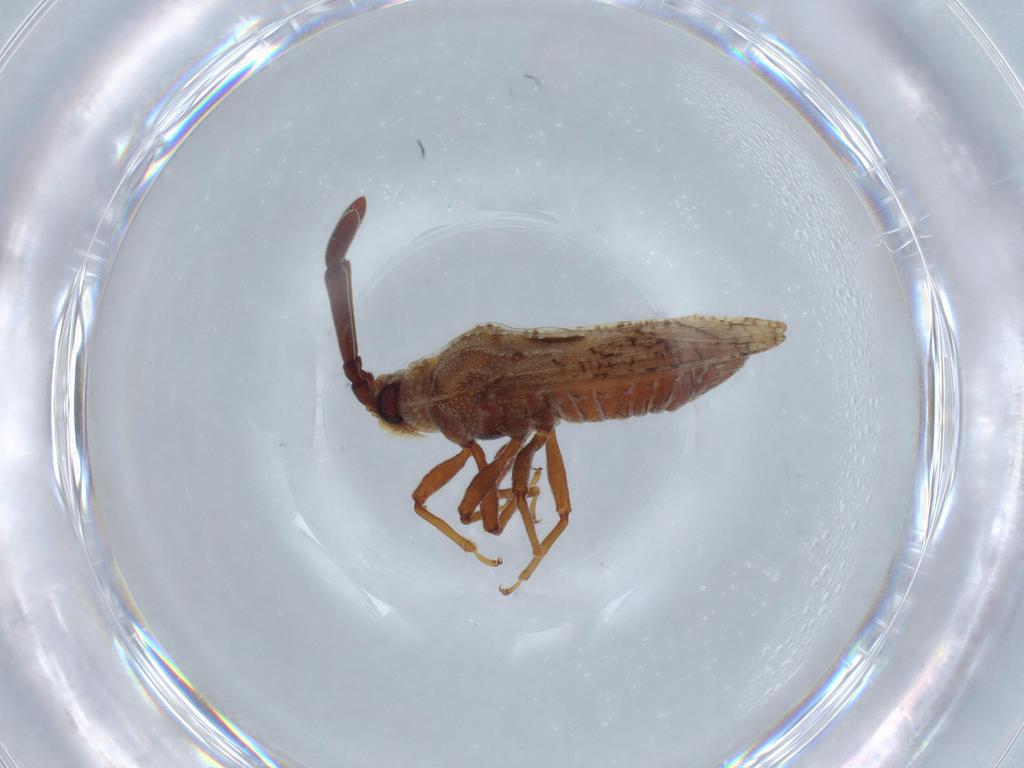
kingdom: Animalia
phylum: Arthropoda
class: Insecta
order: Hemiptera
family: Tingidae
